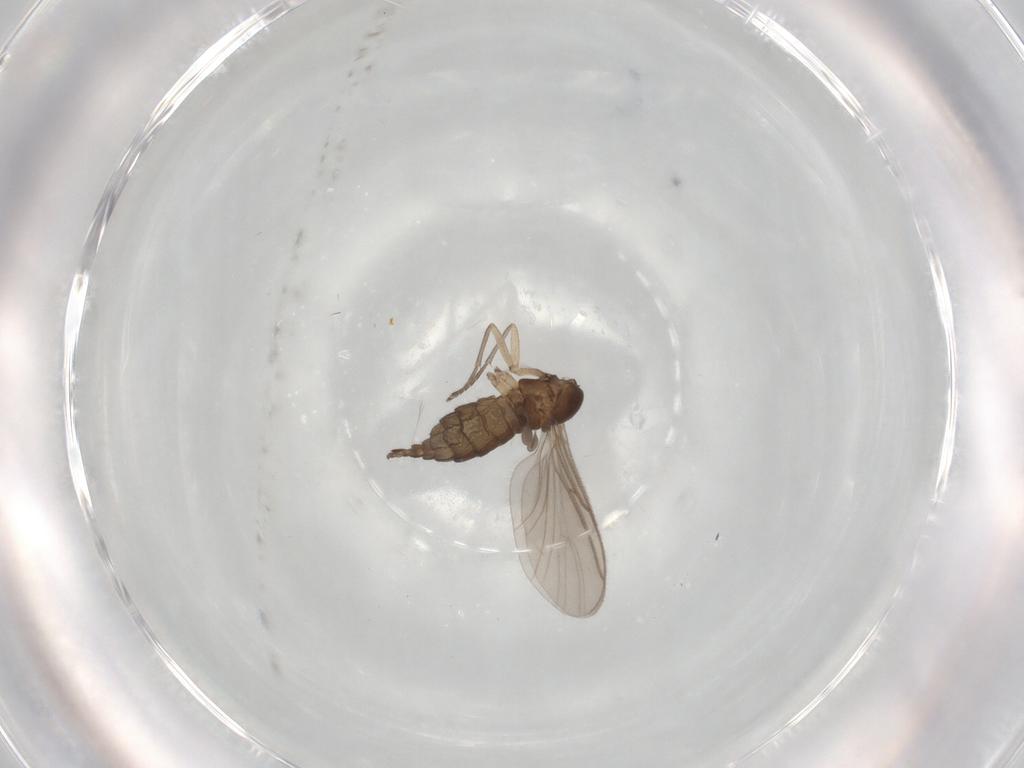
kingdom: Animalia
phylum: Arthropoda
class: Insecta
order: Diptera
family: Sciaridae
